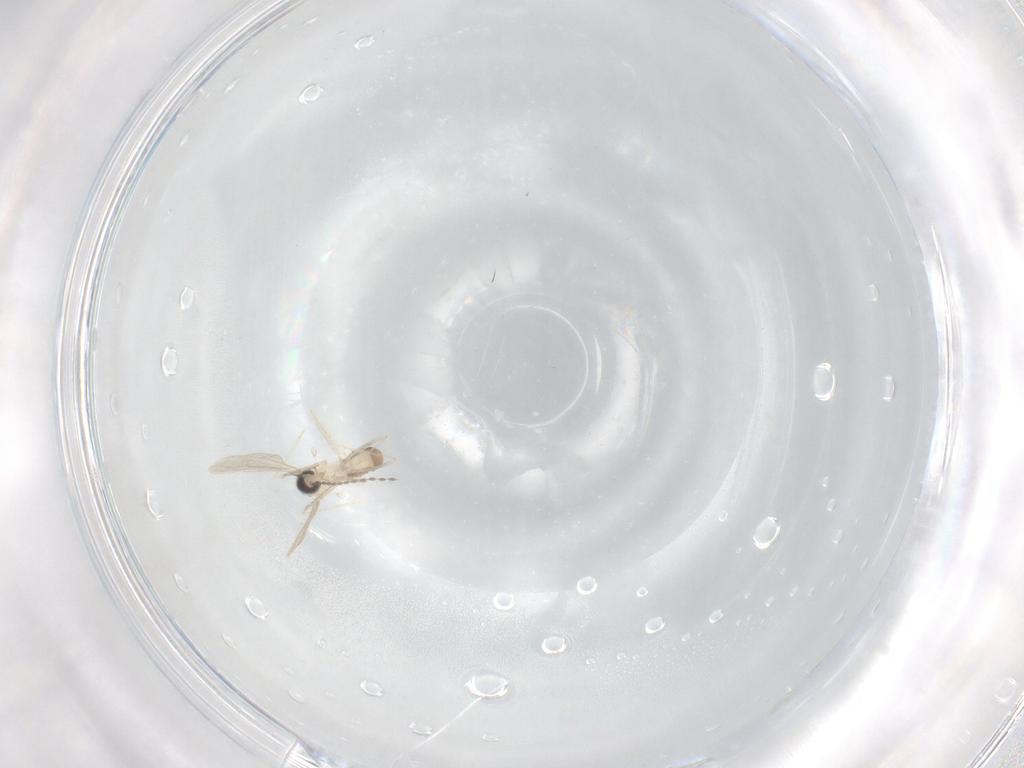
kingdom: Animalia
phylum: Arthropoda
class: Insecta
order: Diptera
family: Cecidomyiidae
